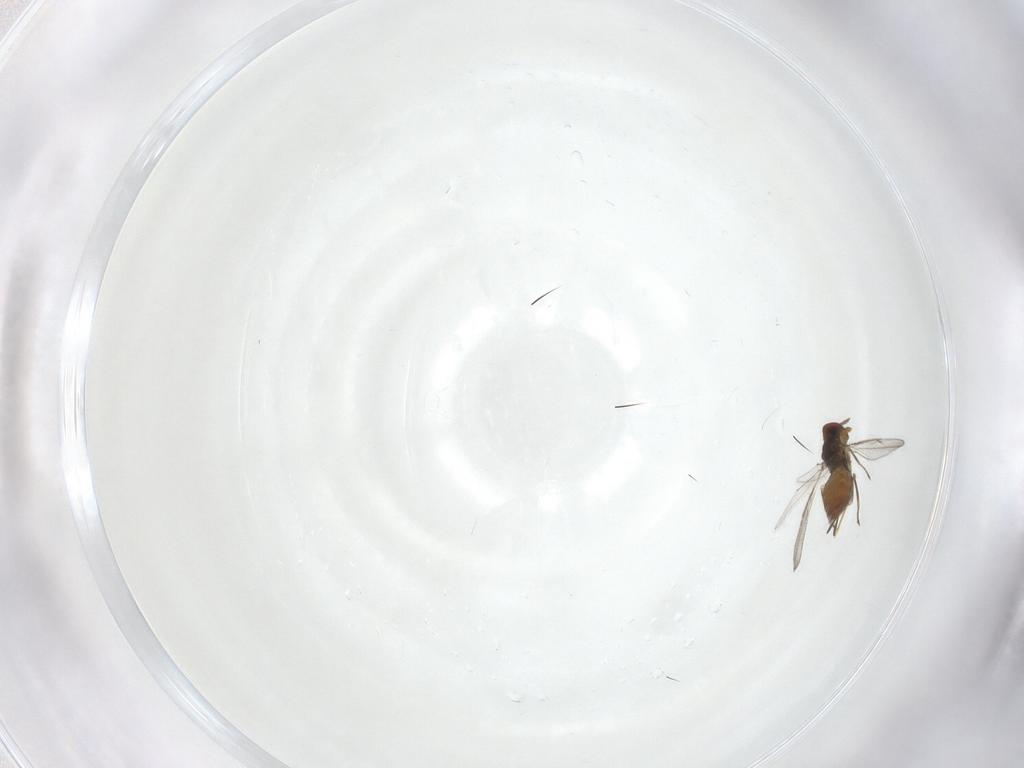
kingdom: Animalia
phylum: Arthropoda
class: Insecta
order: Hymenoptera
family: Eulophidae
